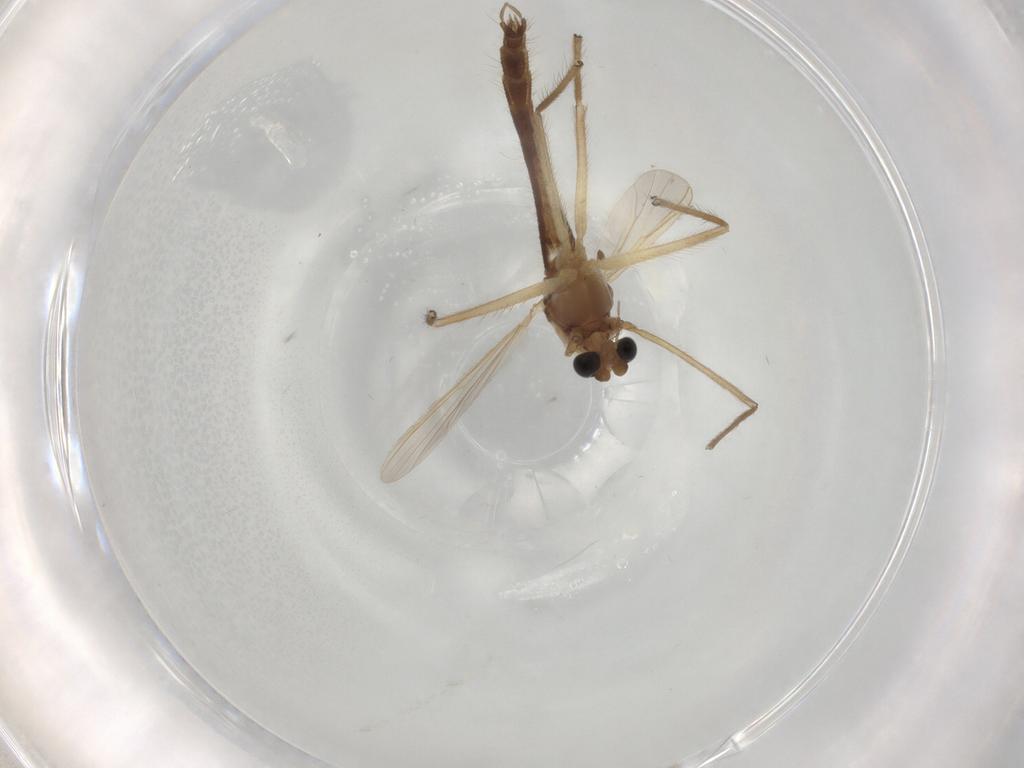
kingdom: Animalia
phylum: Arthropoda
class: Insecta
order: Diptera
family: Chironomidae
